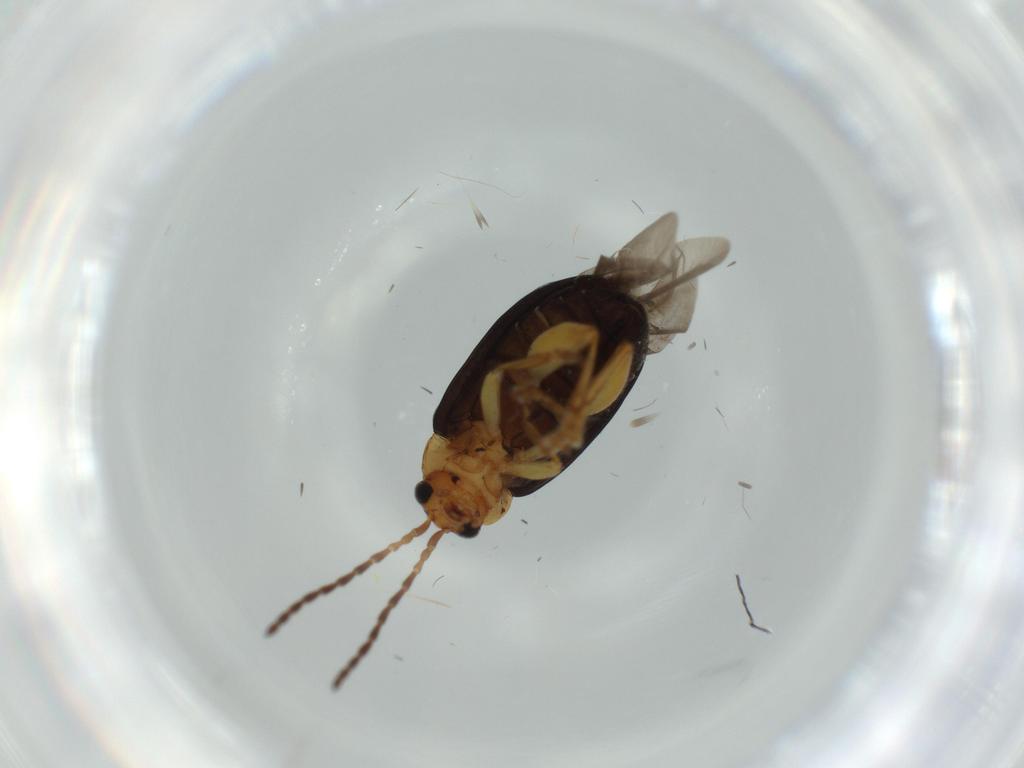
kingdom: Animalia
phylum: Arthropoda
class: Insecta
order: Coleoptera
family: Chrysomelidae
